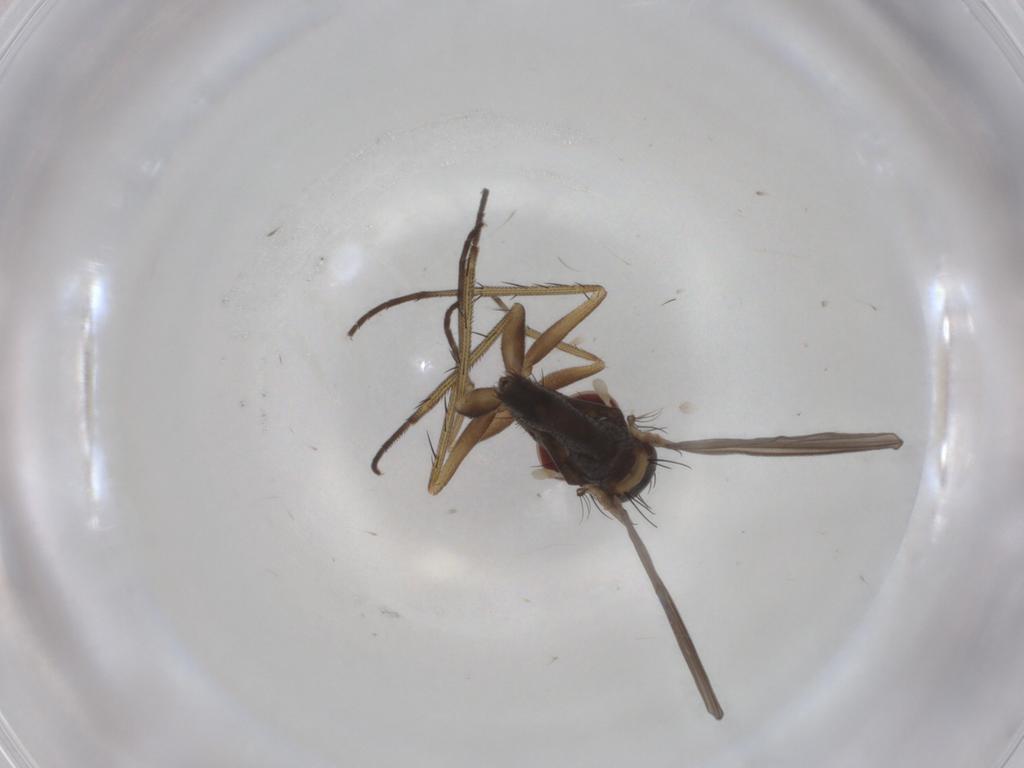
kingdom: Animalia
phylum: Arthropoda
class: Insecta
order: Diptera
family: Dolichopodidae
